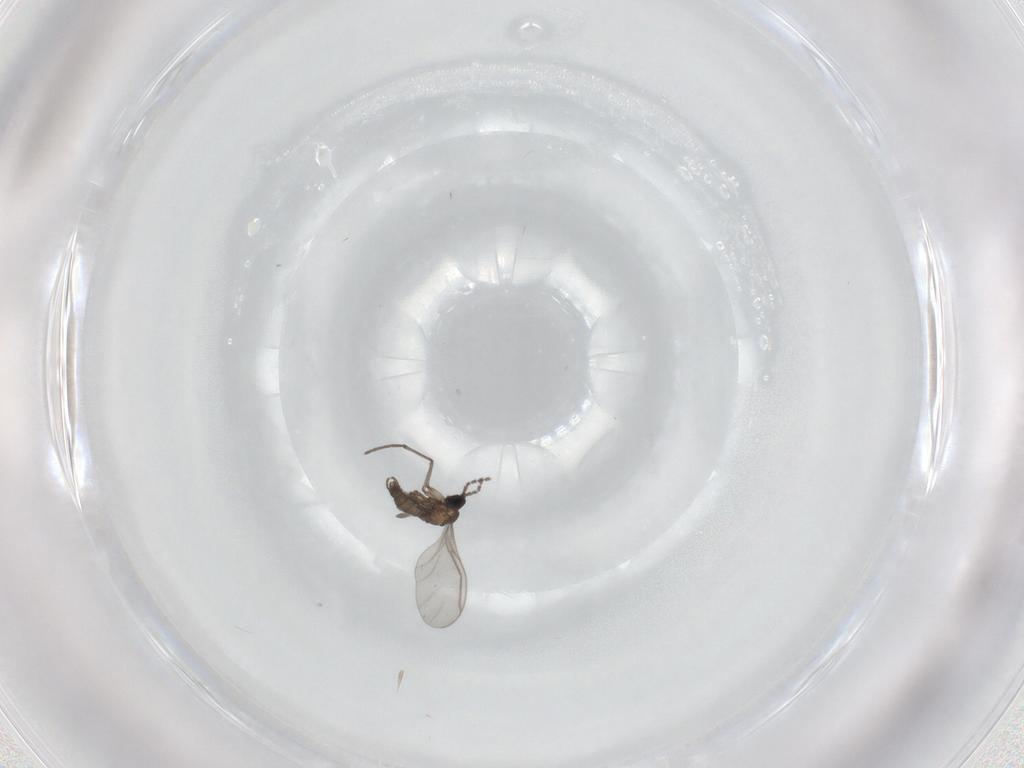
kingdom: Animalia
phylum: Arthropoda
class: Insecta
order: Diptera
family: Sciaridae
